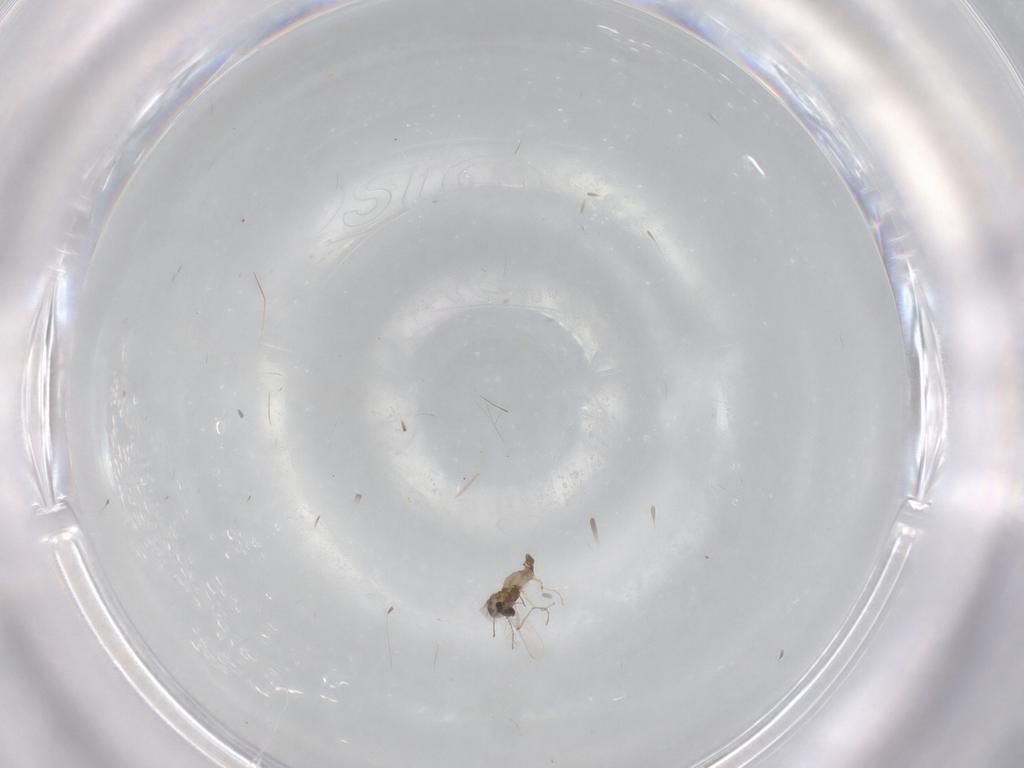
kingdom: Animalia
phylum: Arthropoda
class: Insecta
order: Diptera
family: Chironomidae
